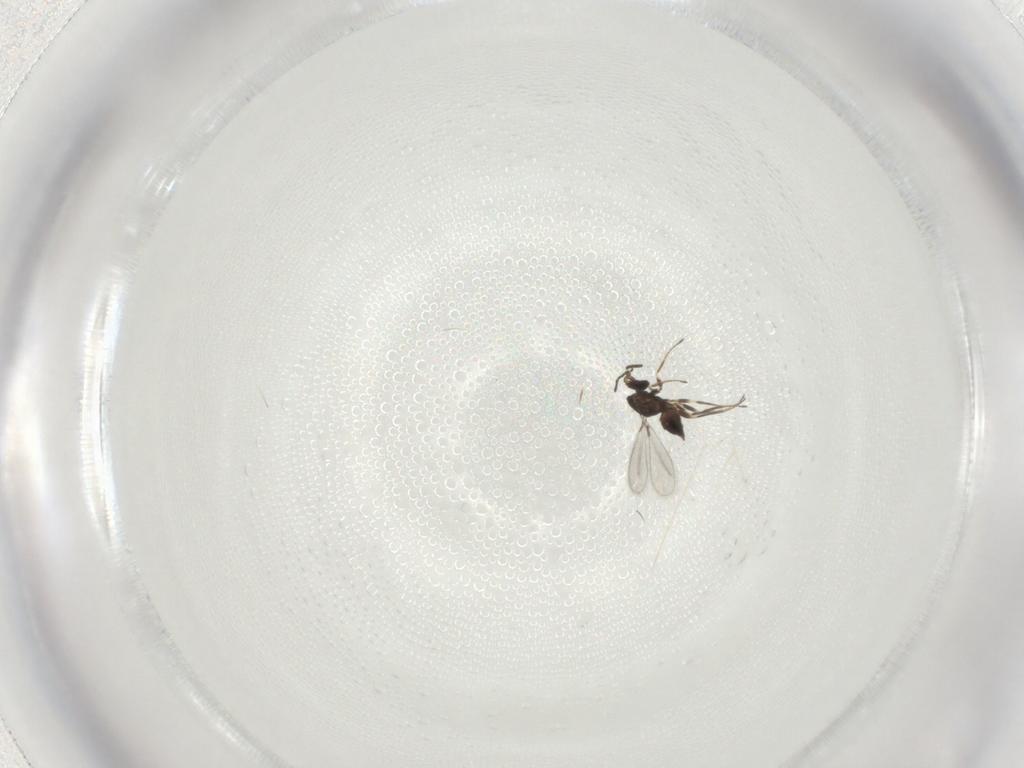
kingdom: Animalia
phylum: Arthropoda
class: Insecta
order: Hymenoptera
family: Mymaridae
